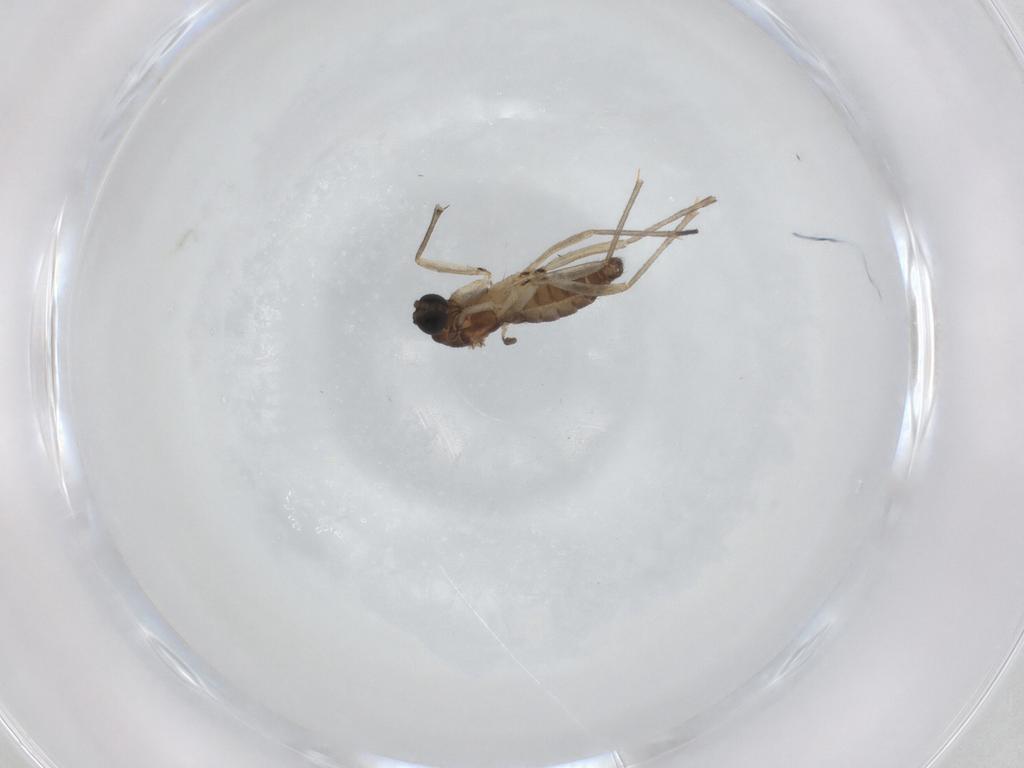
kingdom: Animalia
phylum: Arthropoda
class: Insecta
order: Diptera
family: Sciaridae
